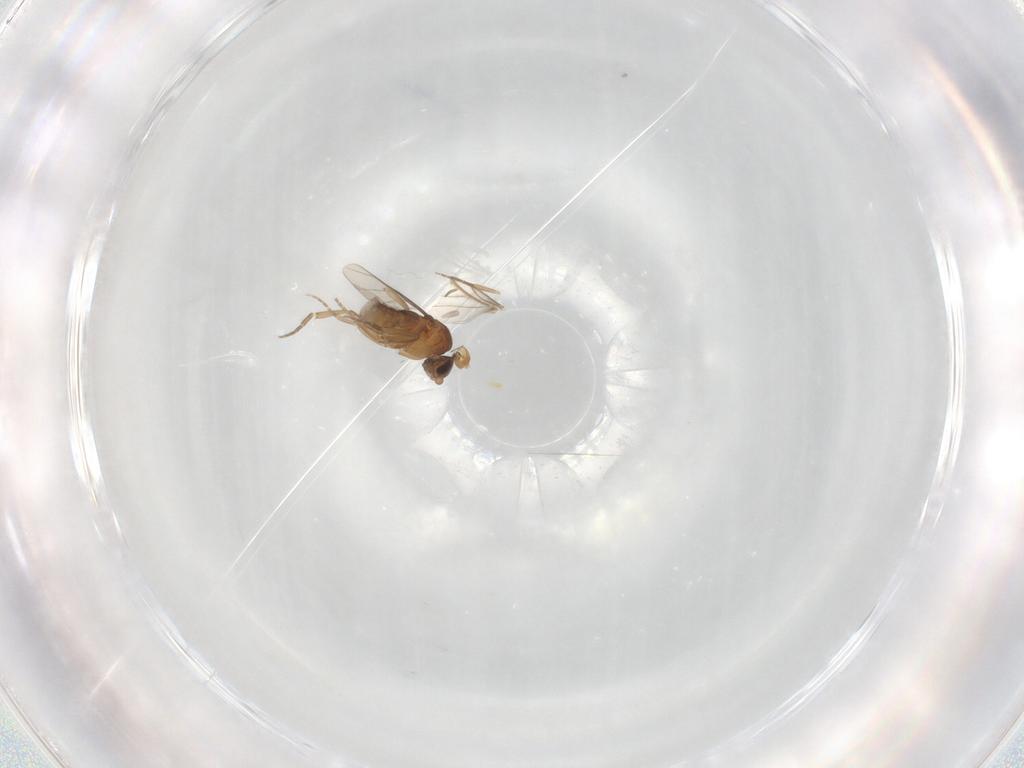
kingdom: Animalia
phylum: Arthropoda
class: Insecta
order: Diptera
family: Phoridae
